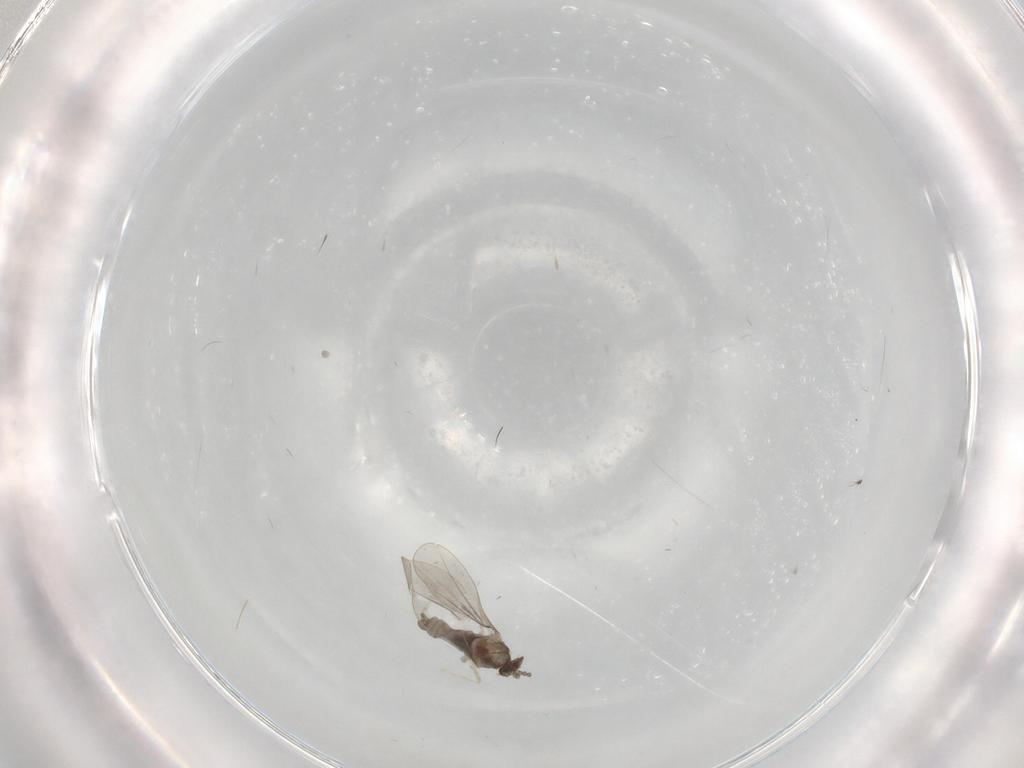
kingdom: Animalia
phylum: Arthropoda
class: Insecta
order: Diptera
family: Cecidomyiidae
